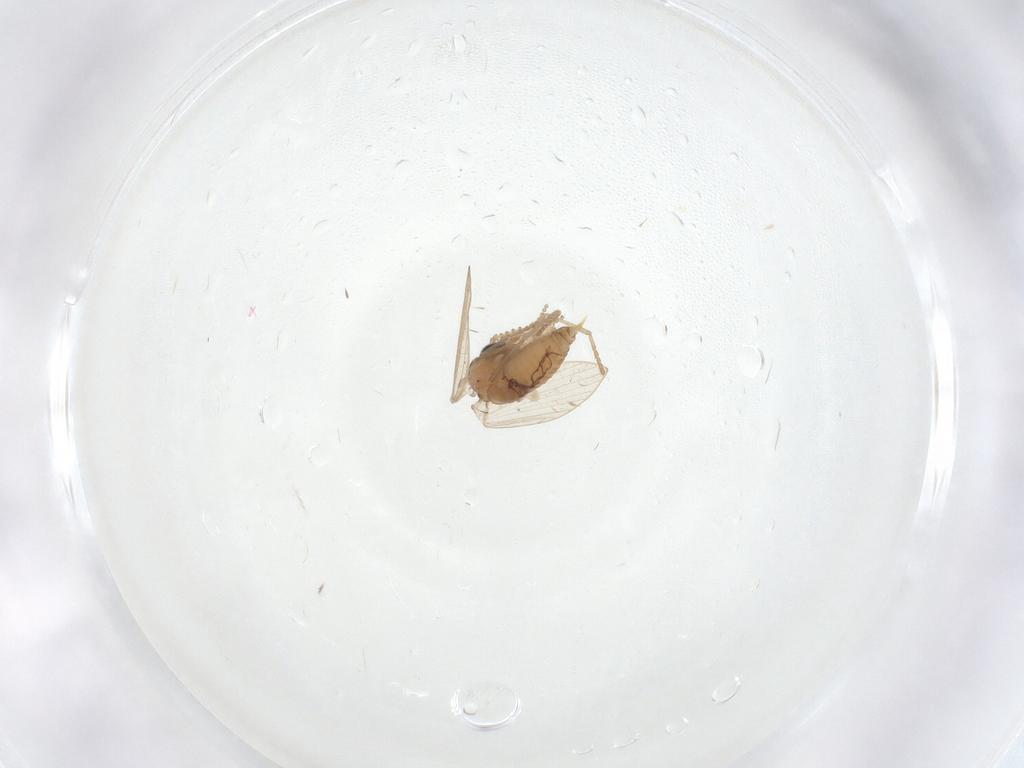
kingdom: Animalia
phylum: Arthropoda
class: Insecta
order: Diptera
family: Psychodidae
